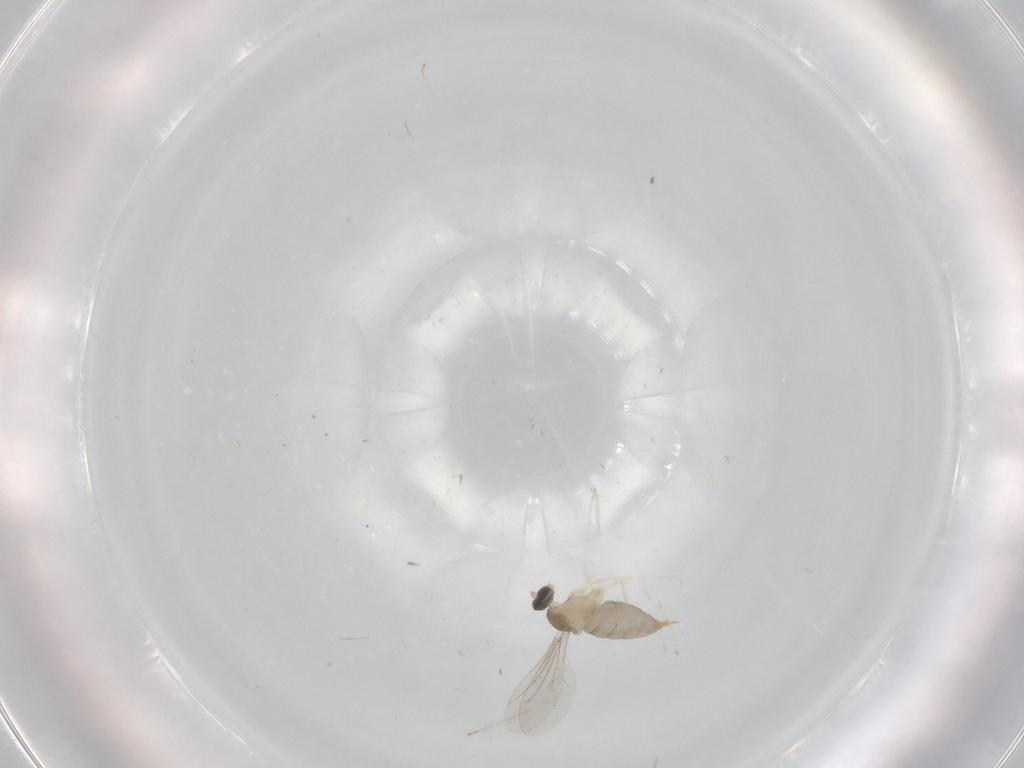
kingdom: Animalia
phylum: Arthropoda
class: Insecta
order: Diptera
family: Cecidomyiidae
